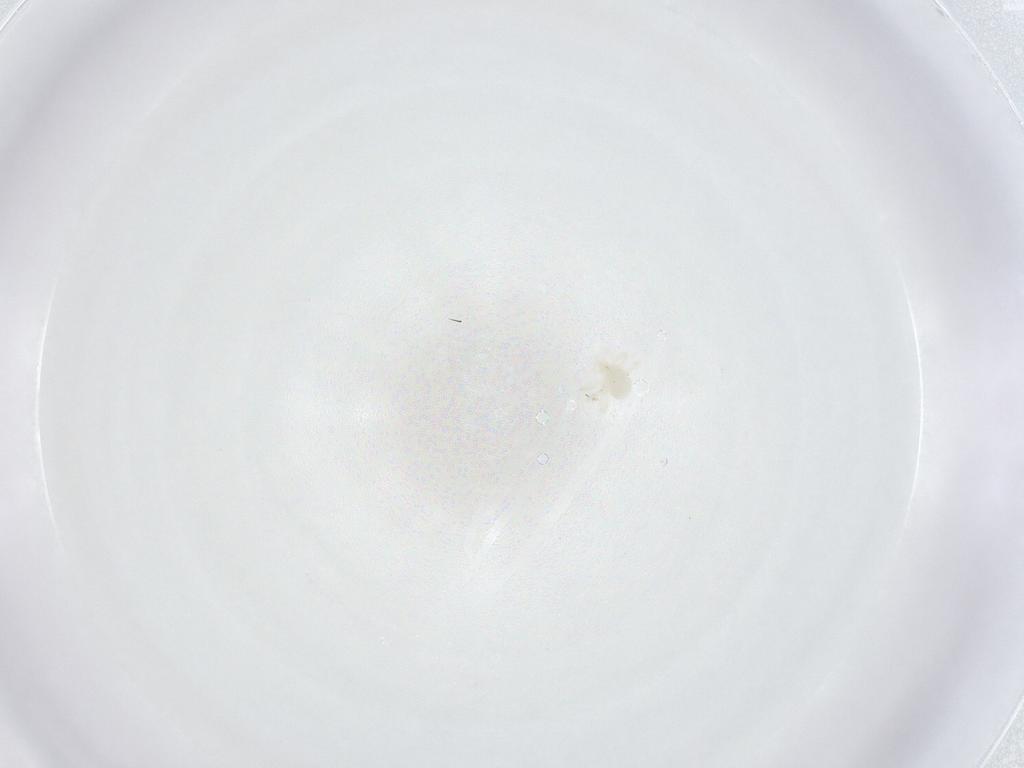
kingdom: Animalia
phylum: Arthropoda
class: Arachnida
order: Trombidiformes
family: Anystidae
